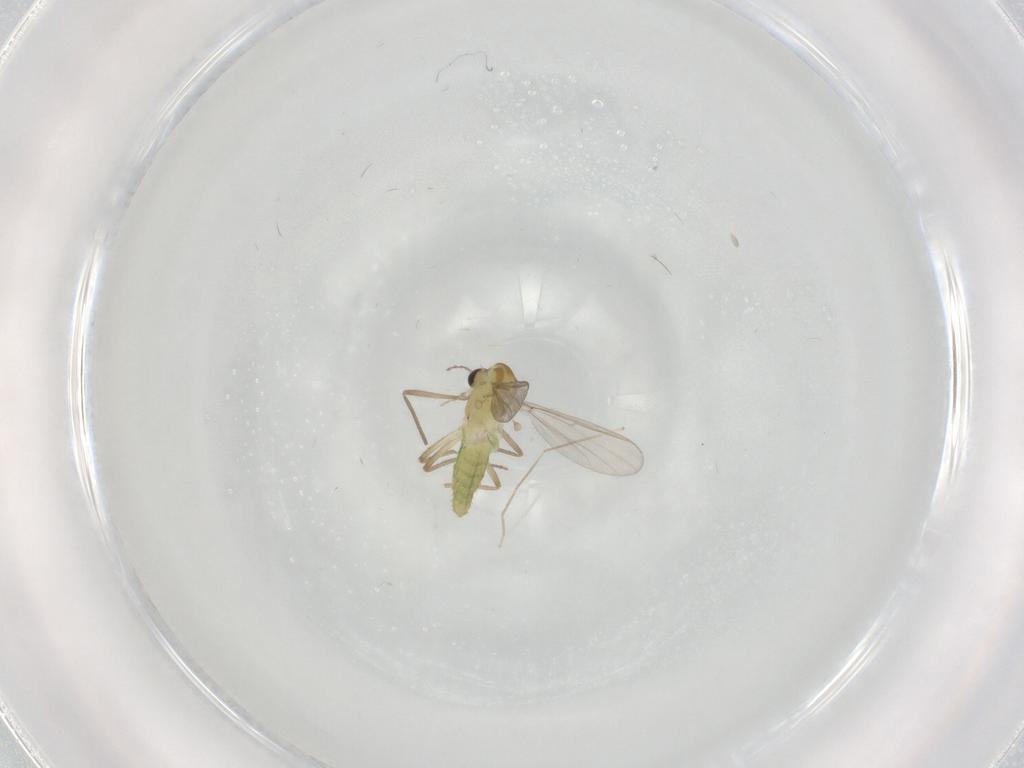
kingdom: Animalia
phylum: Arthropoda
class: Insecta
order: Diptera
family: Chironomidae
